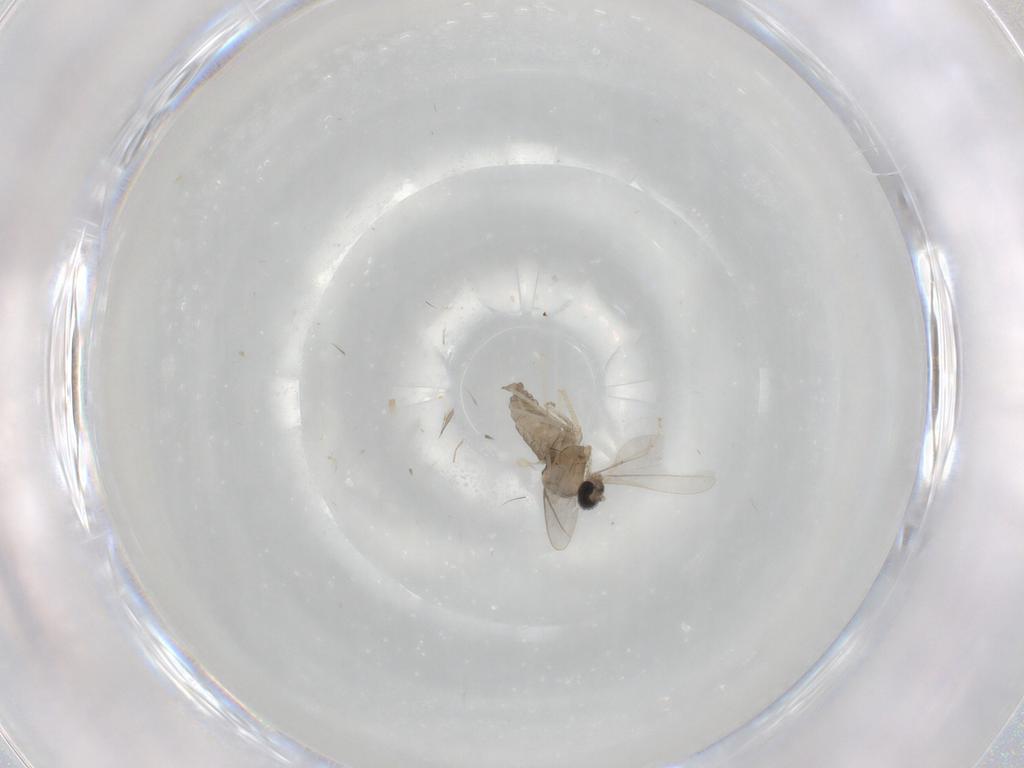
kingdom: Animalia
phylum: Arthropoda
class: Insecta
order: Diptera
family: Cecidomyiidae
